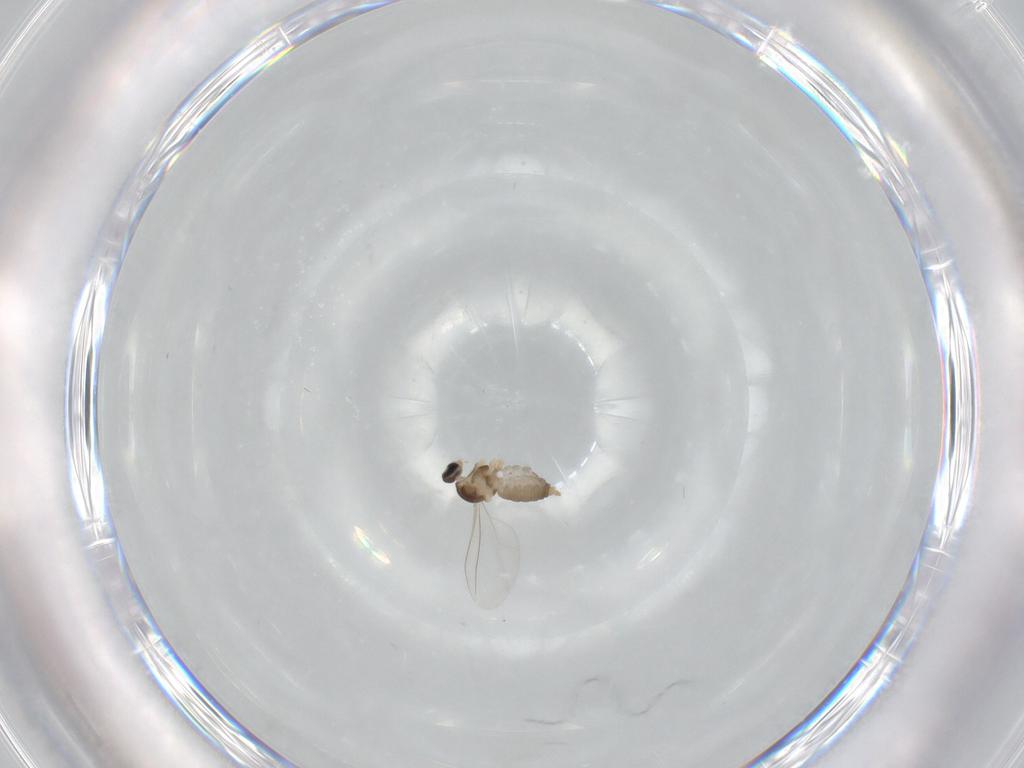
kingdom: Animalia
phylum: Arthropoda
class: Insecta
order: Diptera
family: Cecidomyiidae
